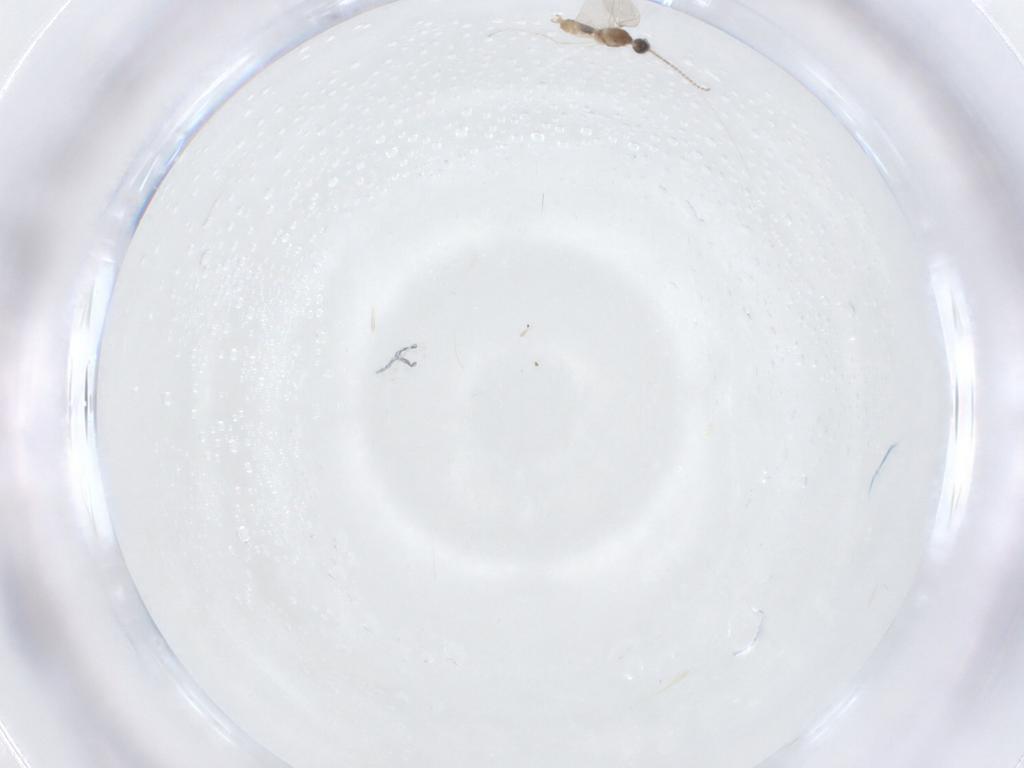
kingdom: Animalia
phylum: Arthropoda
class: Insecta
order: Diptera
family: Cecidomyiidae
